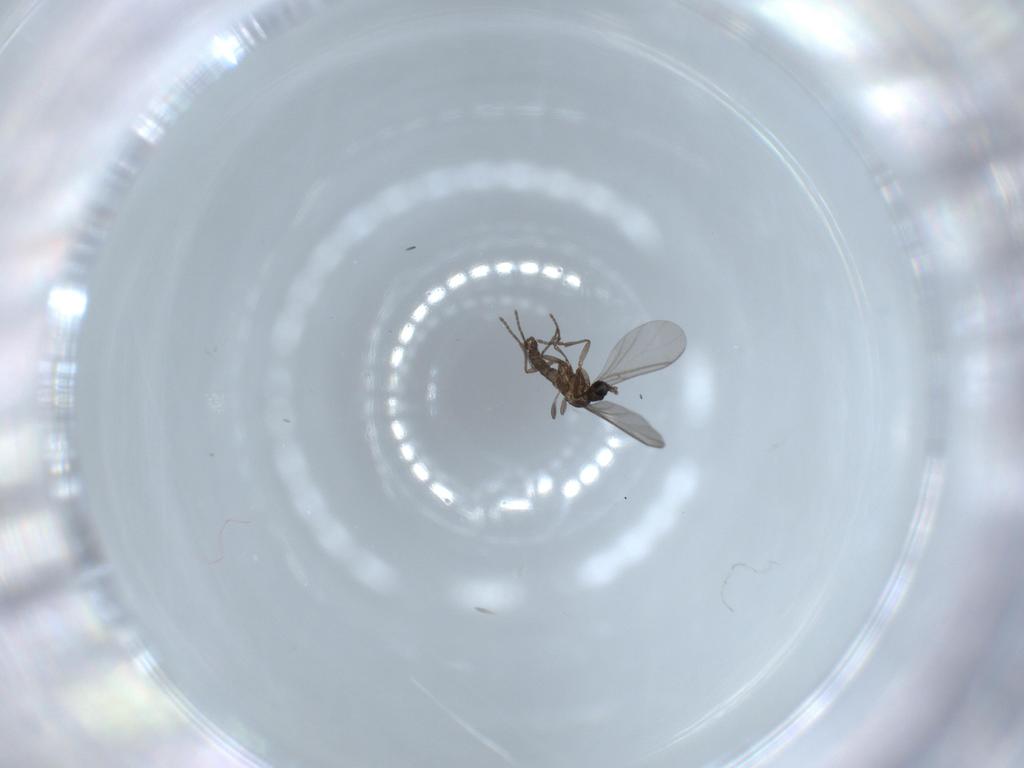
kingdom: Animalia
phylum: Arthropoda
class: Insecta
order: Diptera
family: Sciaridae
